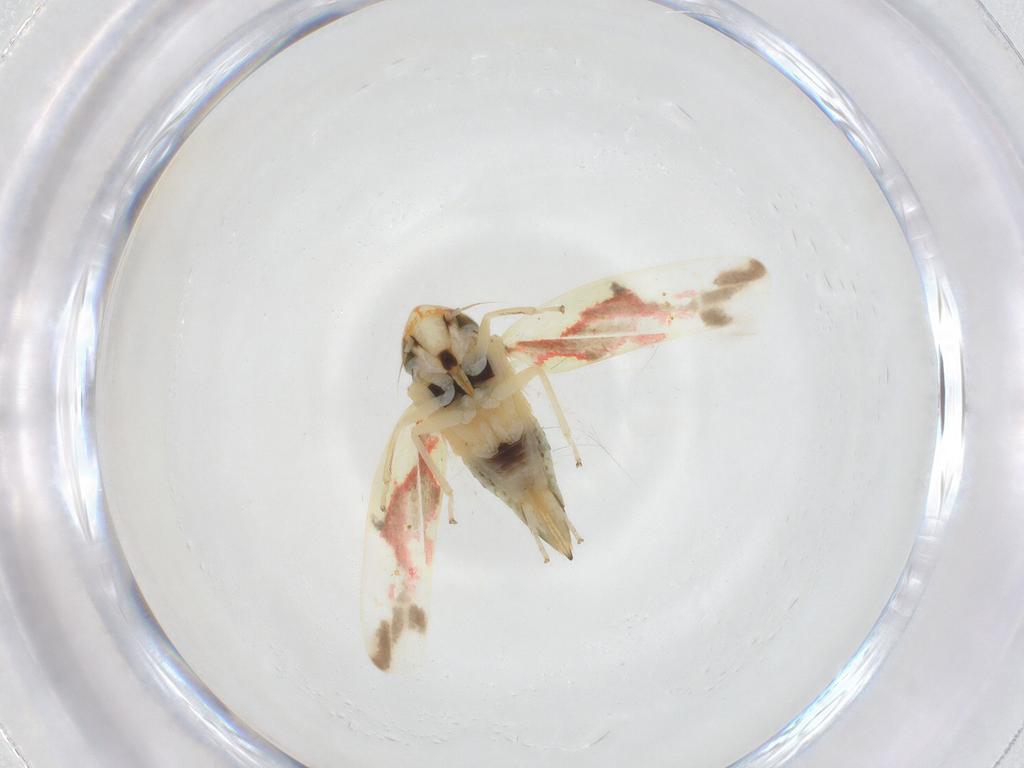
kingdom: Animalia
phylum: Arthropoda
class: Insecta
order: Hemiptera
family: Cicadellidae
